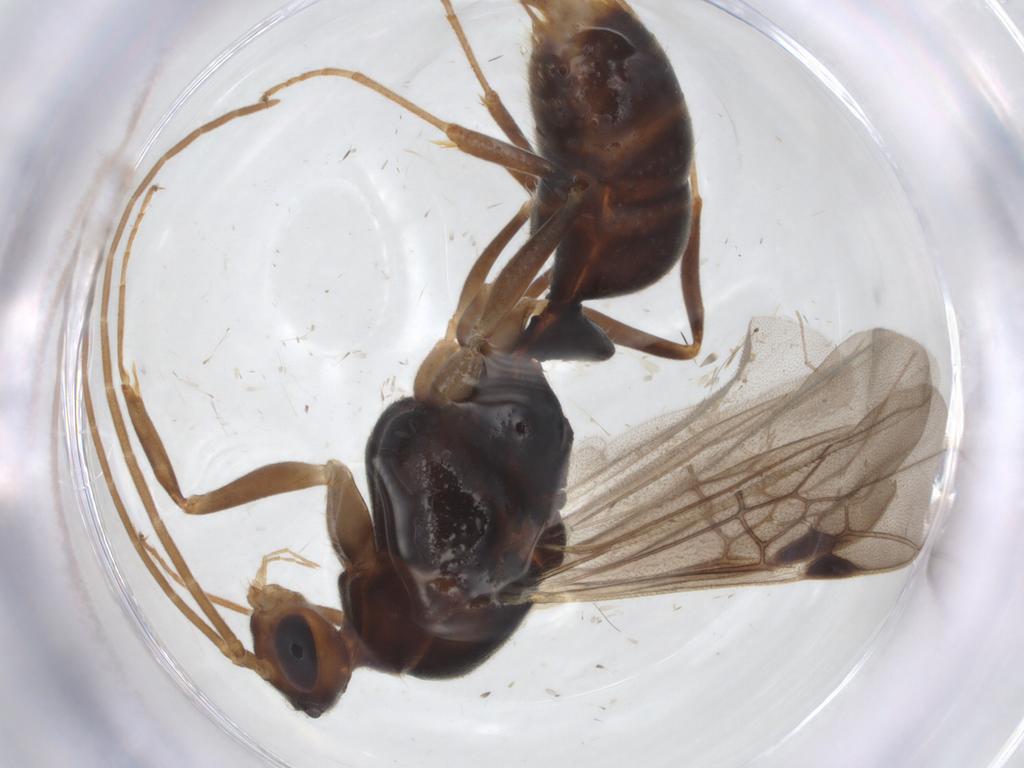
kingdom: Animalia
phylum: Arthropoda
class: Insecta
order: Hymenoptera
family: Formicidae
